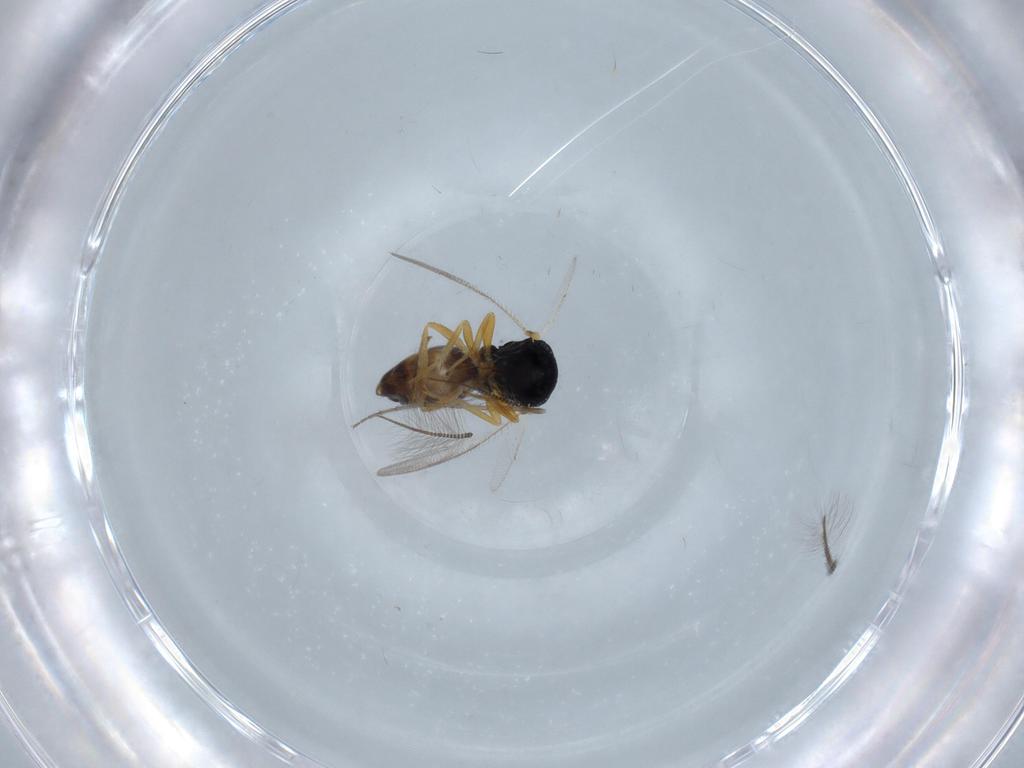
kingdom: Animalia
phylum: Arthropoda
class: Insecta
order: Hymenoptera
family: Scelionidae
